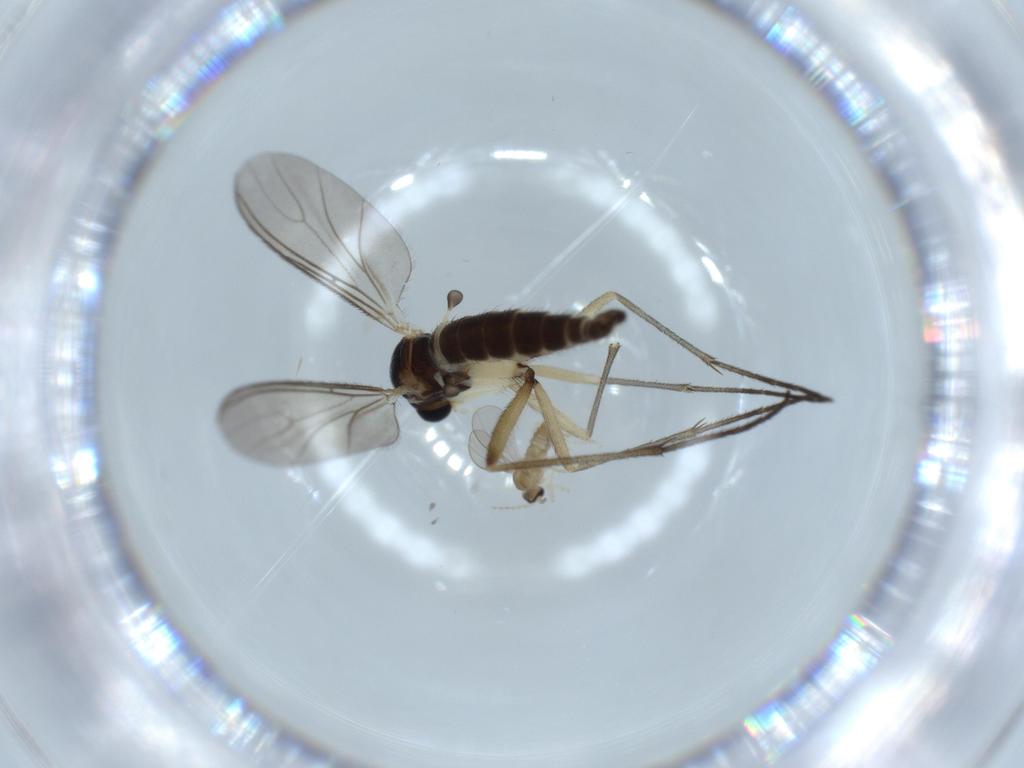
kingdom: Animalia
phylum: Arthropoda
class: Insecta
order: Diptera
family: Sciaridae
